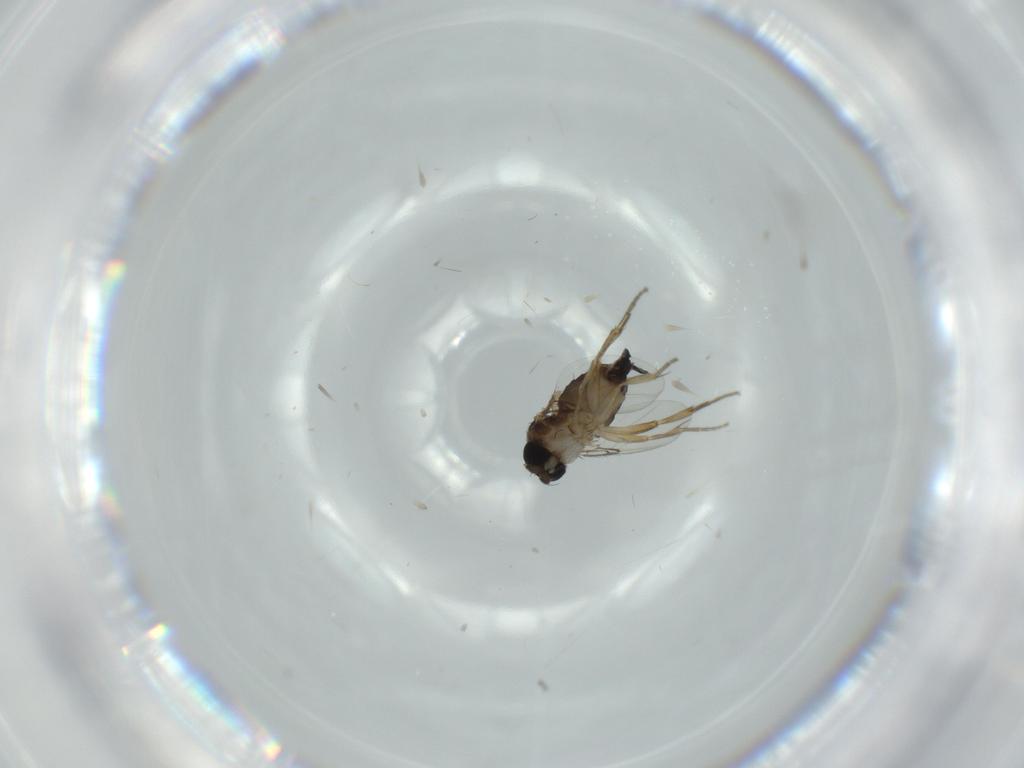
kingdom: Animalia
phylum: Arthropoda
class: Insecta
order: Diptera
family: Phoridae
